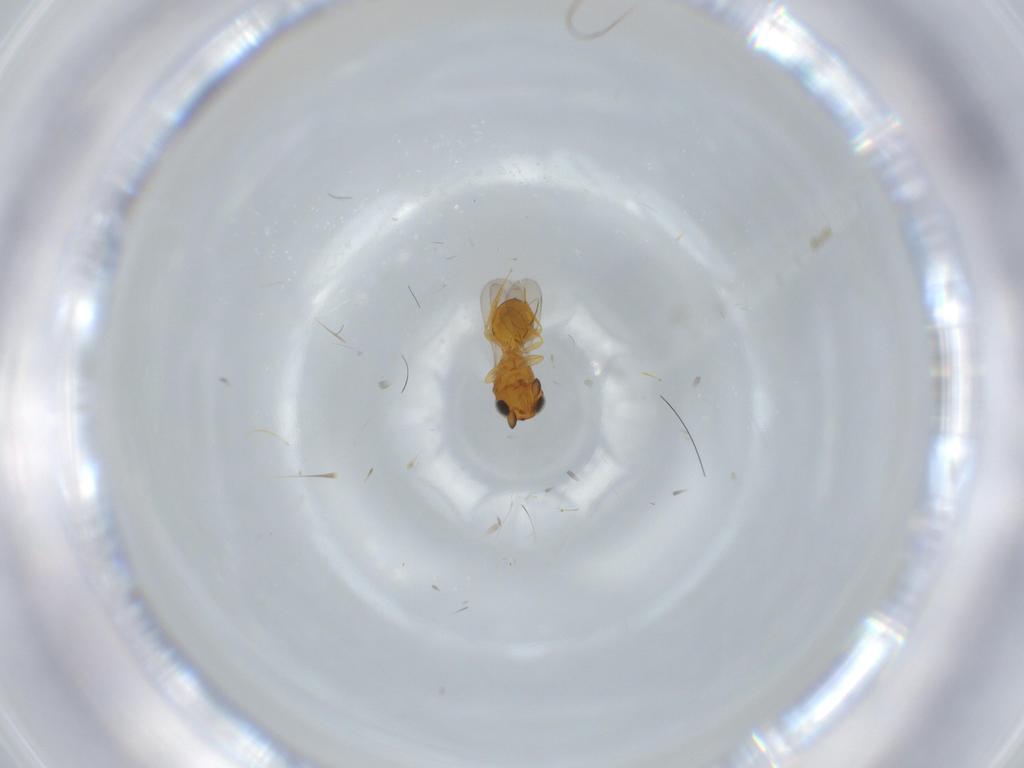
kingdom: Animalia
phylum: Arthropoda
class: Insecta
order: Hymenoptera
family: Scelionidae
